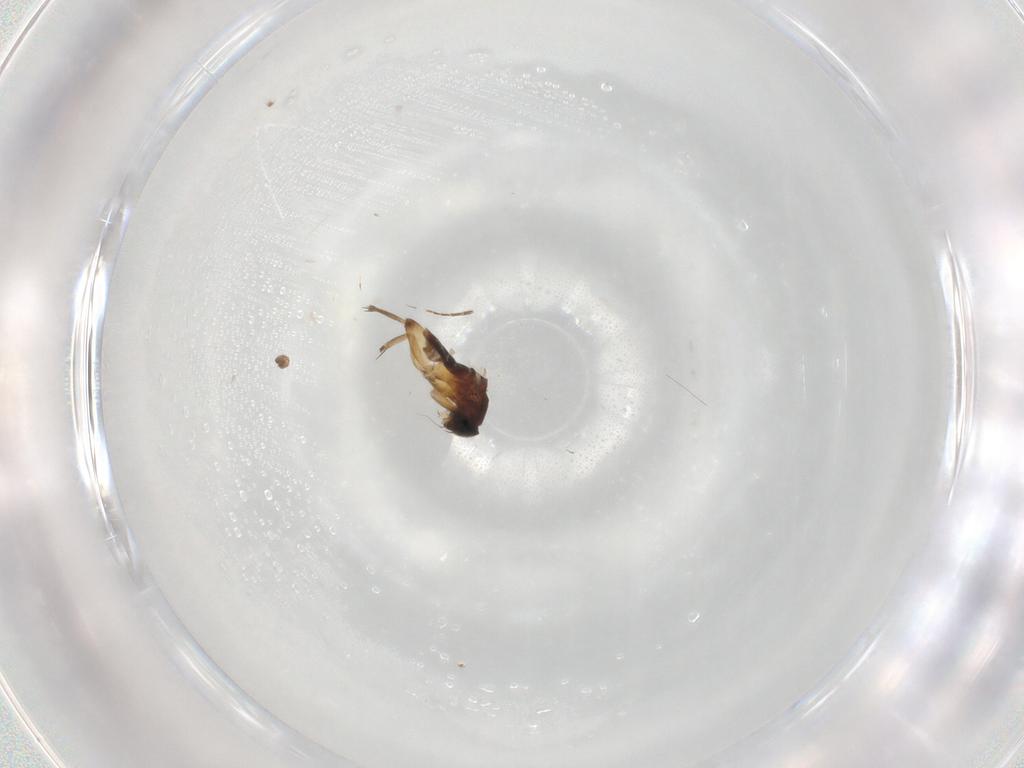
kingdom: Animalia
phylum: Arthropoda
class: Insecta
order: Diptera
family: Phoridae
